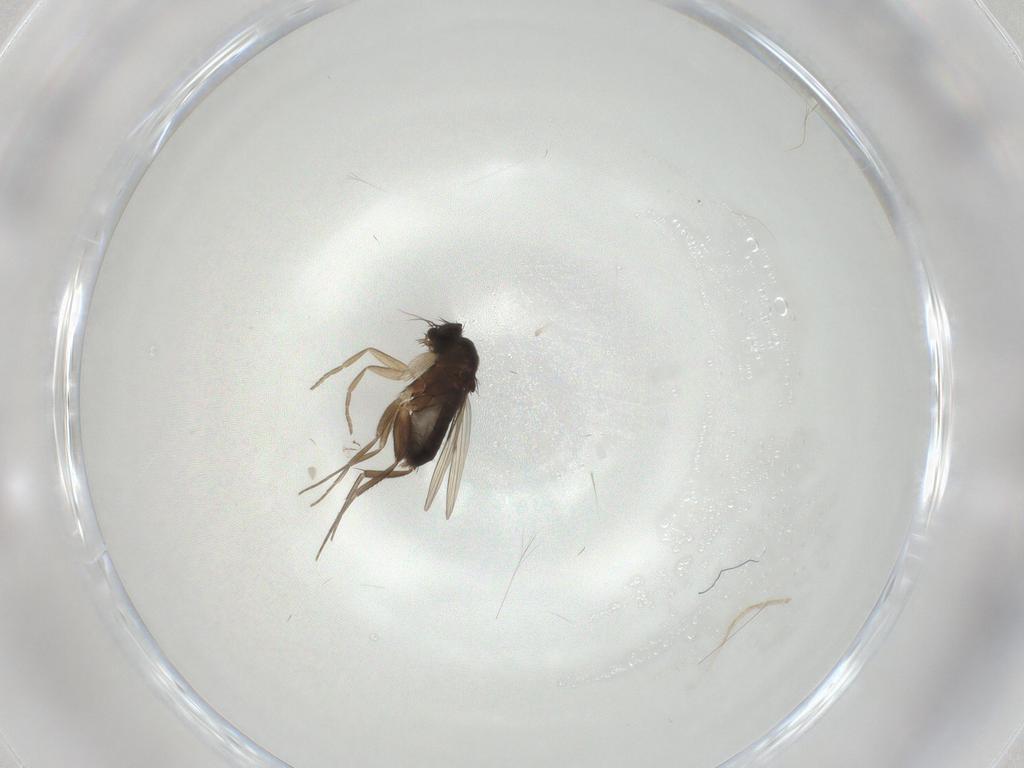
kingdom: Animalia
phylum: Arthropoda
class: Insecta
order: Diptera
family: Phoridae
